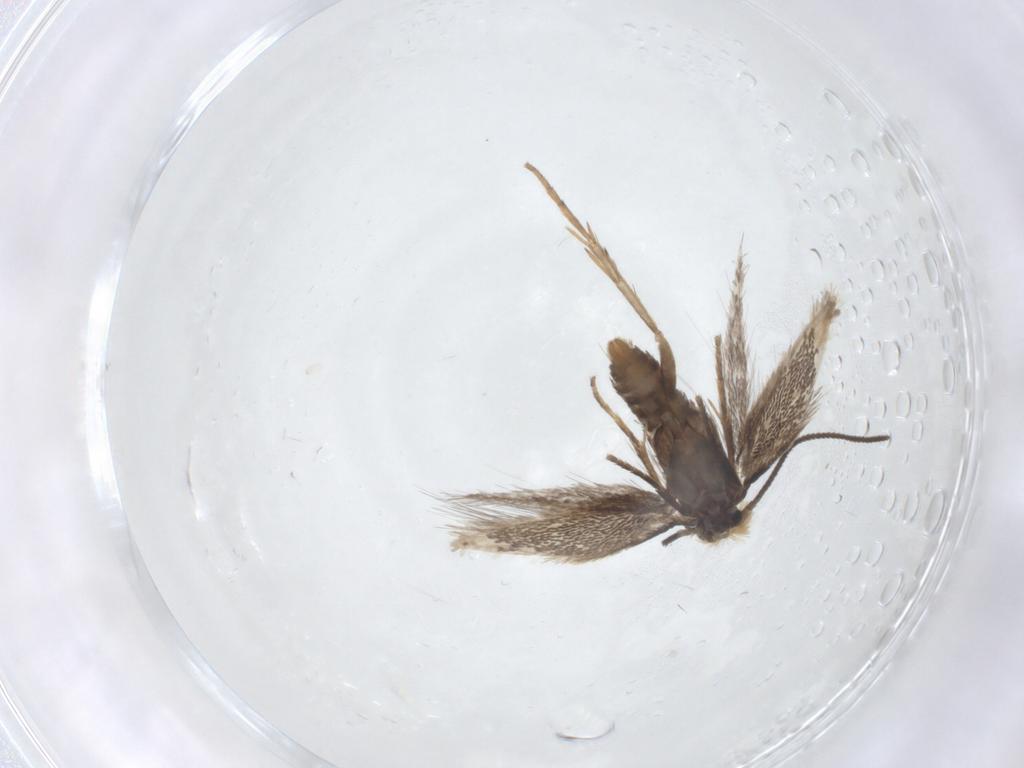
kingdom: Animalia
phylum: Arthropoda
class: Insecta
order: Lepidoptera
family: Nepticulidae
